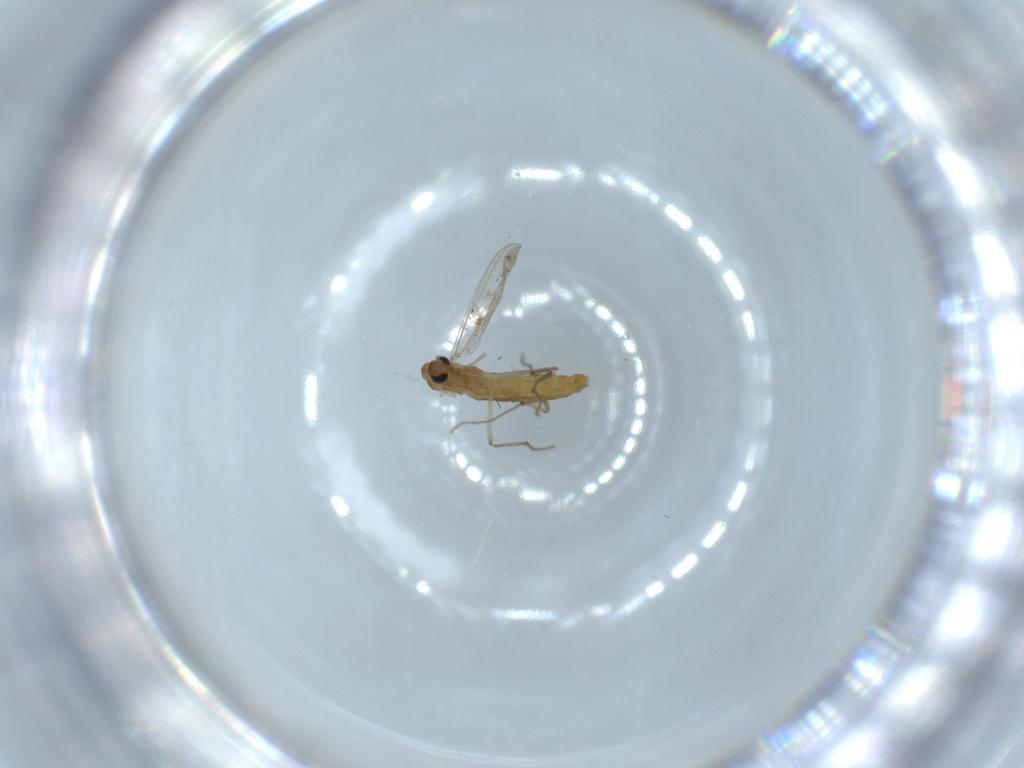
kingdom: Animalia
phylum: Arthropoda
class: Insecta
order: Diptera
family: Chironomidae
